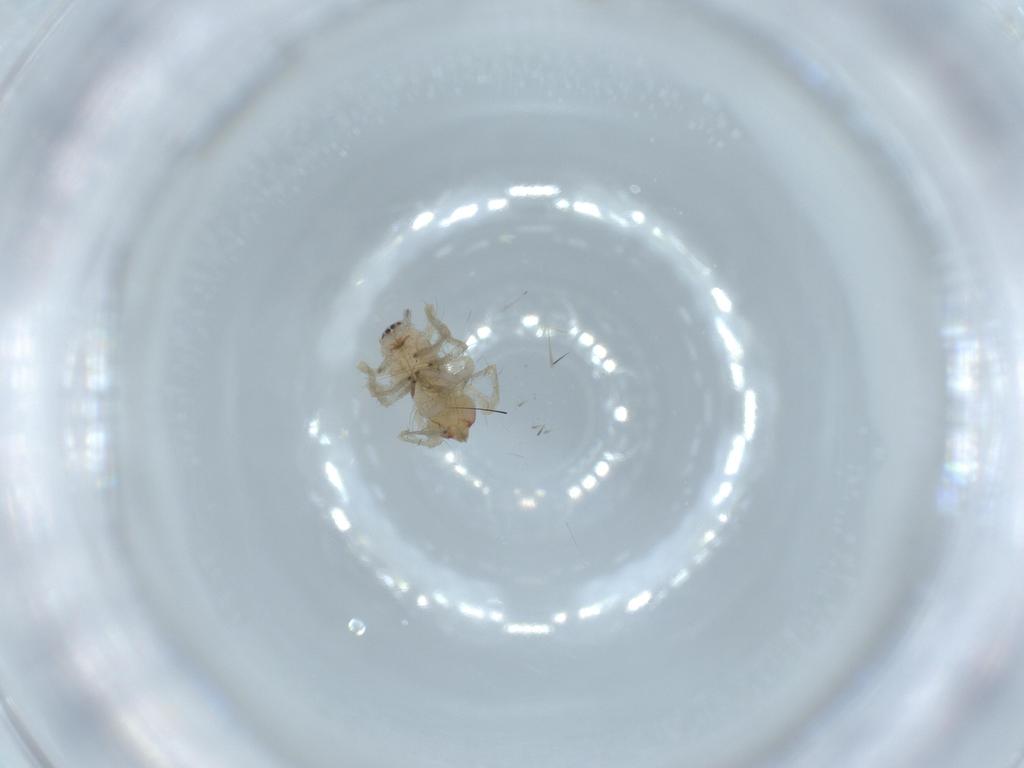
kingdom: Animalia
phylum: Arthropoda
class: Arachnida
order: Araneae
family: Clubionidae
